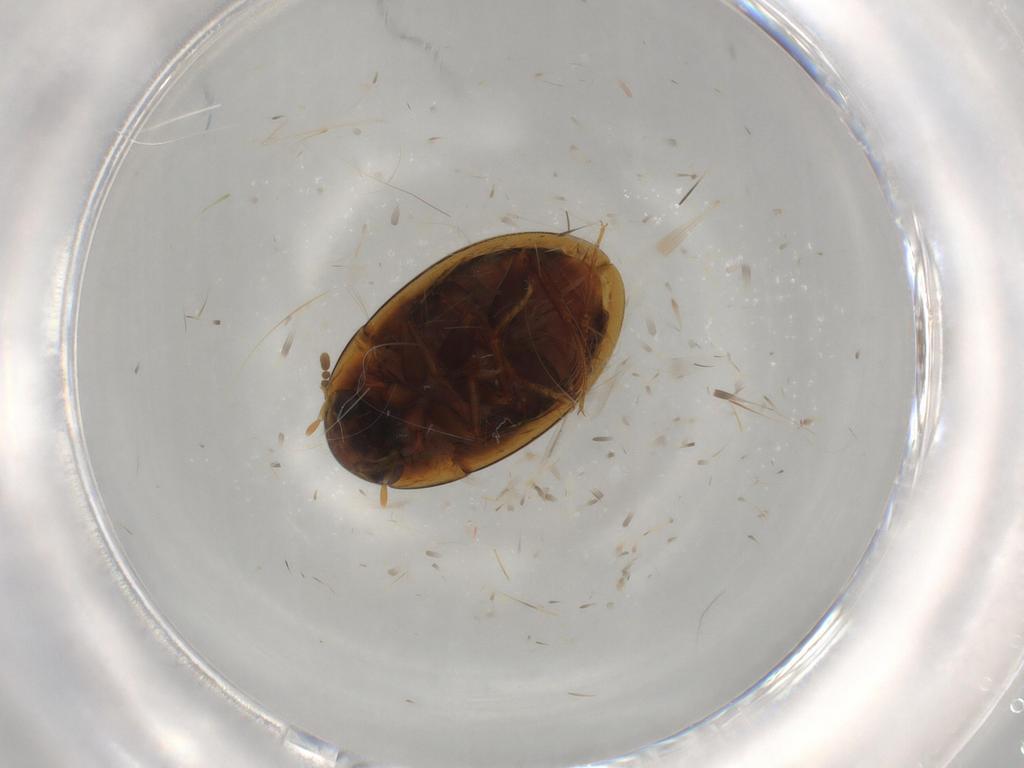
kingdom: Animalia
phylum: Arthropoda
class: Insecta
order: Coleoptera
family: Hydrophilidae
